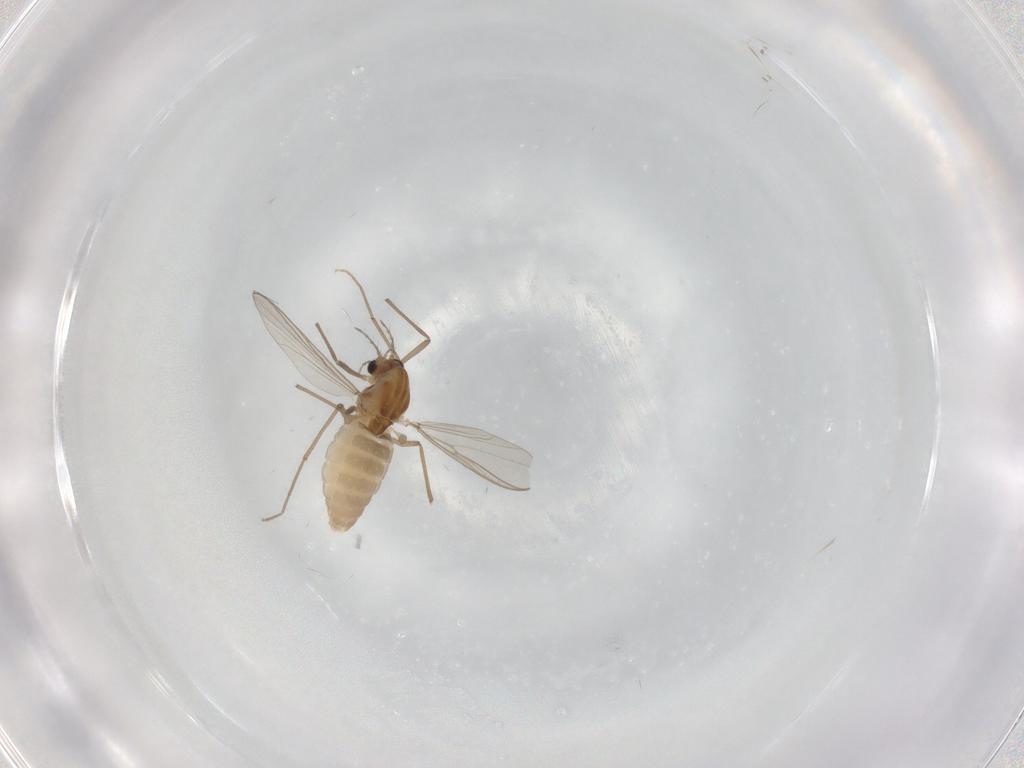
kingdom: Animalia
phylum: Arthropoda
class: Insecta
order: Diptera
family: Chironomidae
